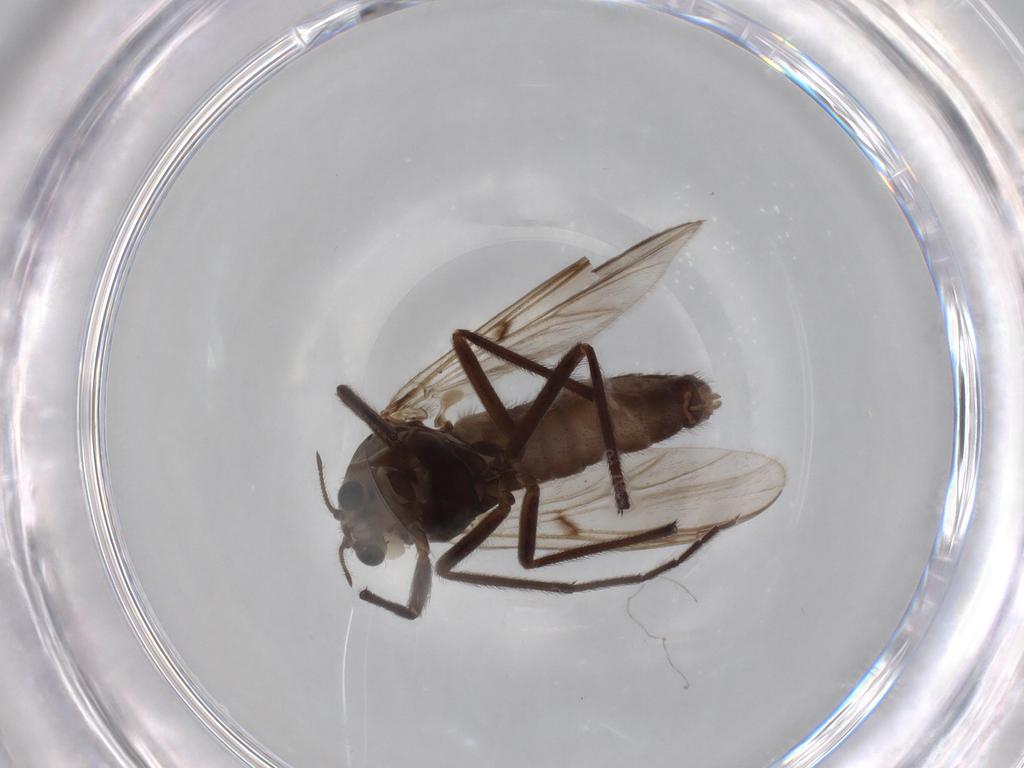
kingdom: Animalia
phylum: Arthropoda
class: Insecta
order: Diptera
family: Chironomidae
